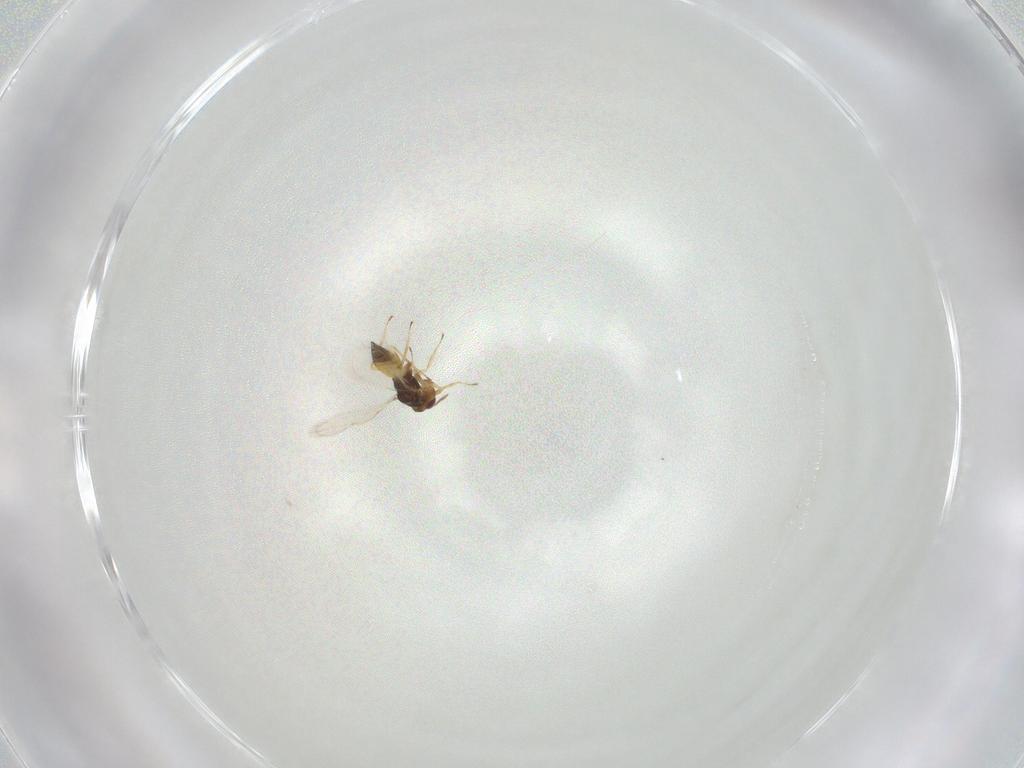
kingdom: Animalia
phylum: Arthropoda
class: Insecta
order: Hymenoptera
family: Eulophidae
